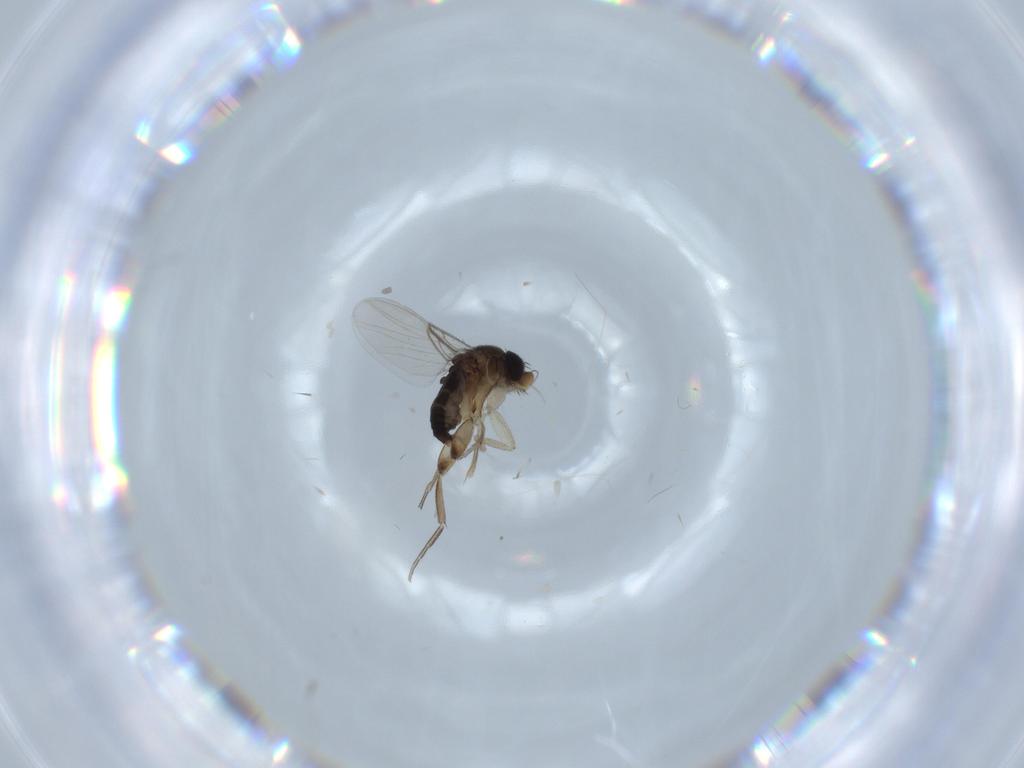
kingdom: Animalia
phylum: Arthropoda
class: Insecta
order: Diptera
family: Phoridae
